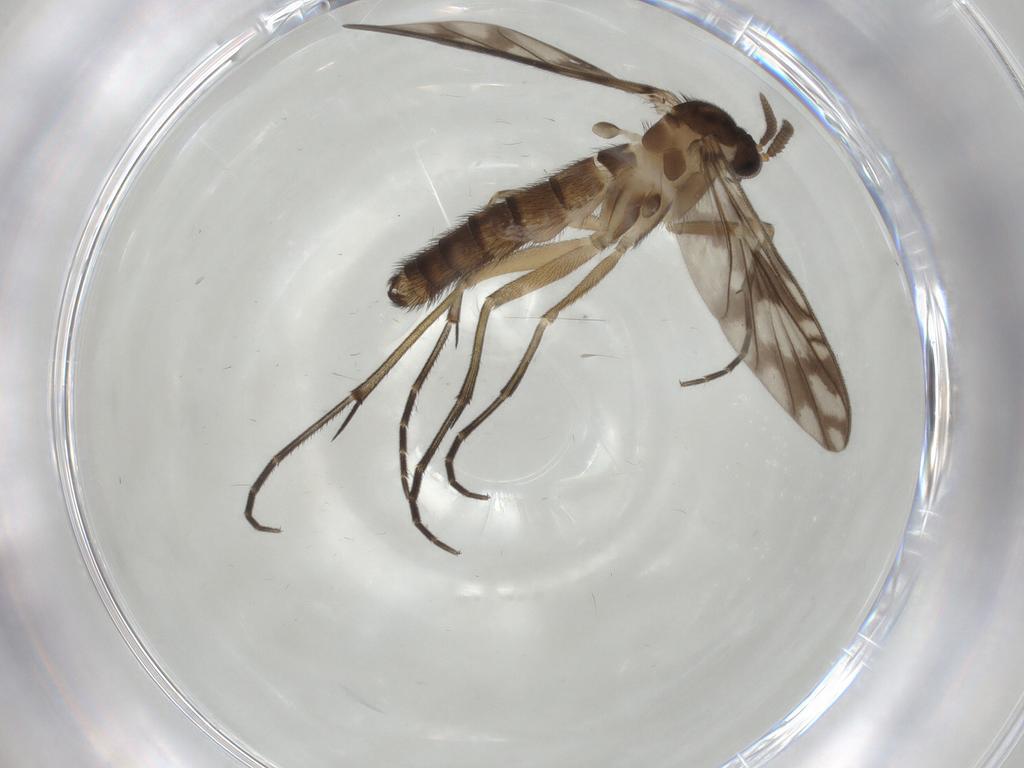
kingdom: Animalia
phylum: Arthropoda
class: Insecta
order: Diptera
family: Keroplatidae
